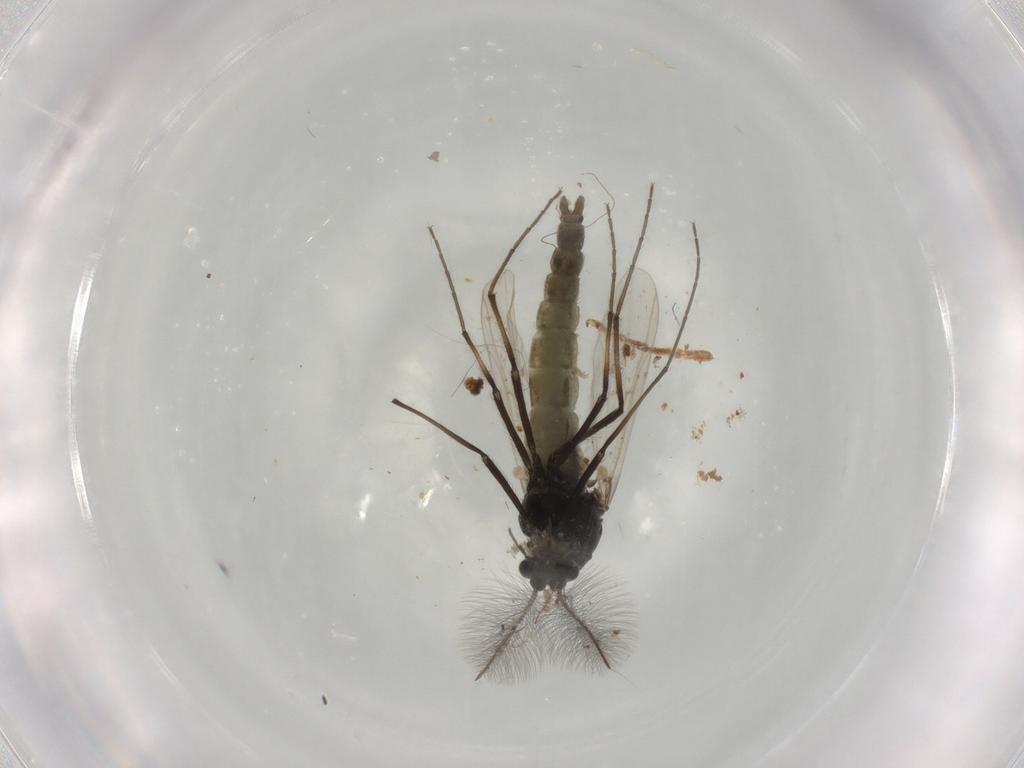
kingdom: Animalia
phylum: Arthropoda
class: Insecta
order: Diptera
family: Chironomidae
